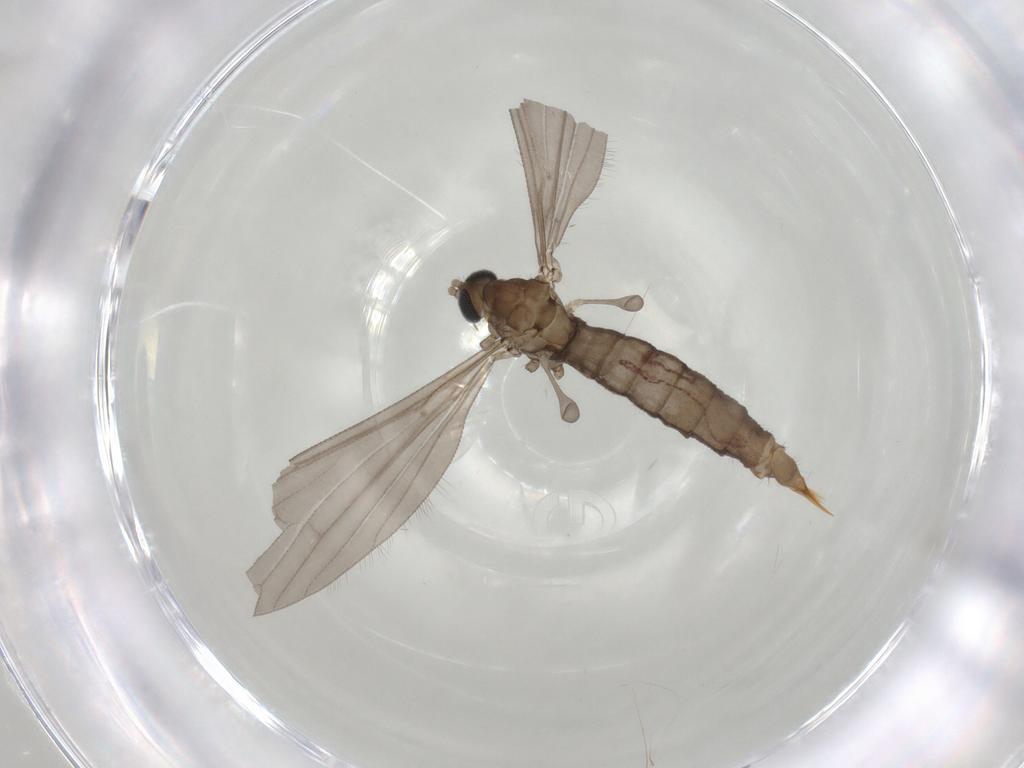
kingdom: Animalia
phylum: Arthropoda
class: Insecta
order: Diptera
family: Limoniidae
